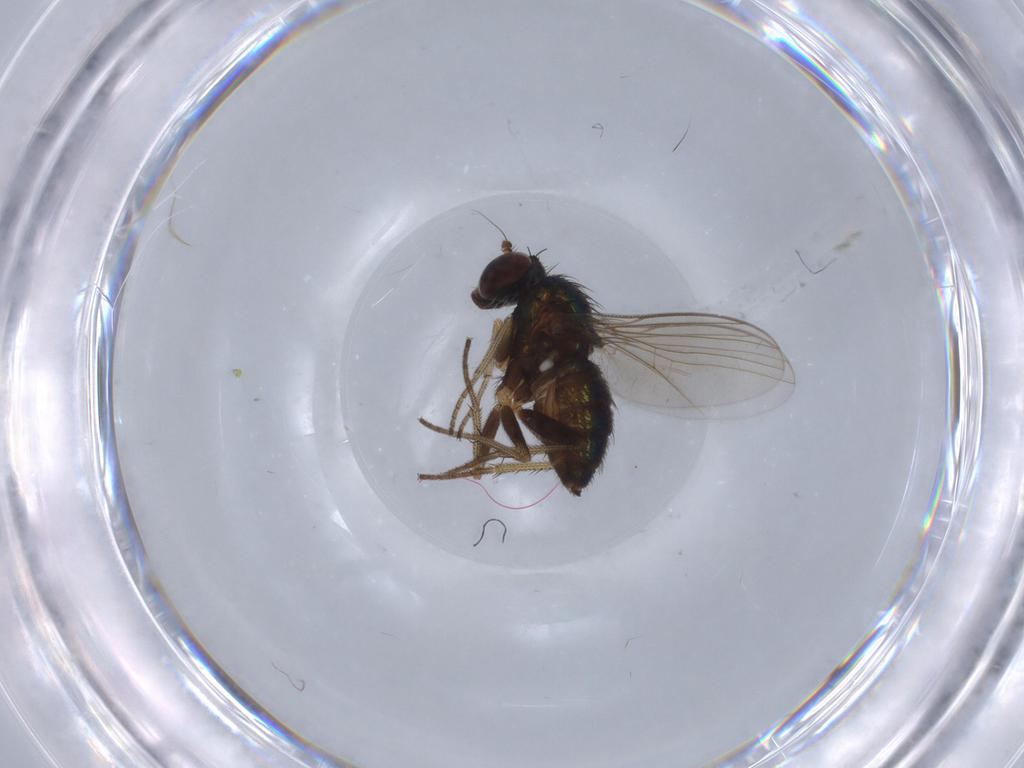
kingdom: Animalia
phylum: Arthropoda
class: Insecta
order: Diptera
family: Dolichopodidae
